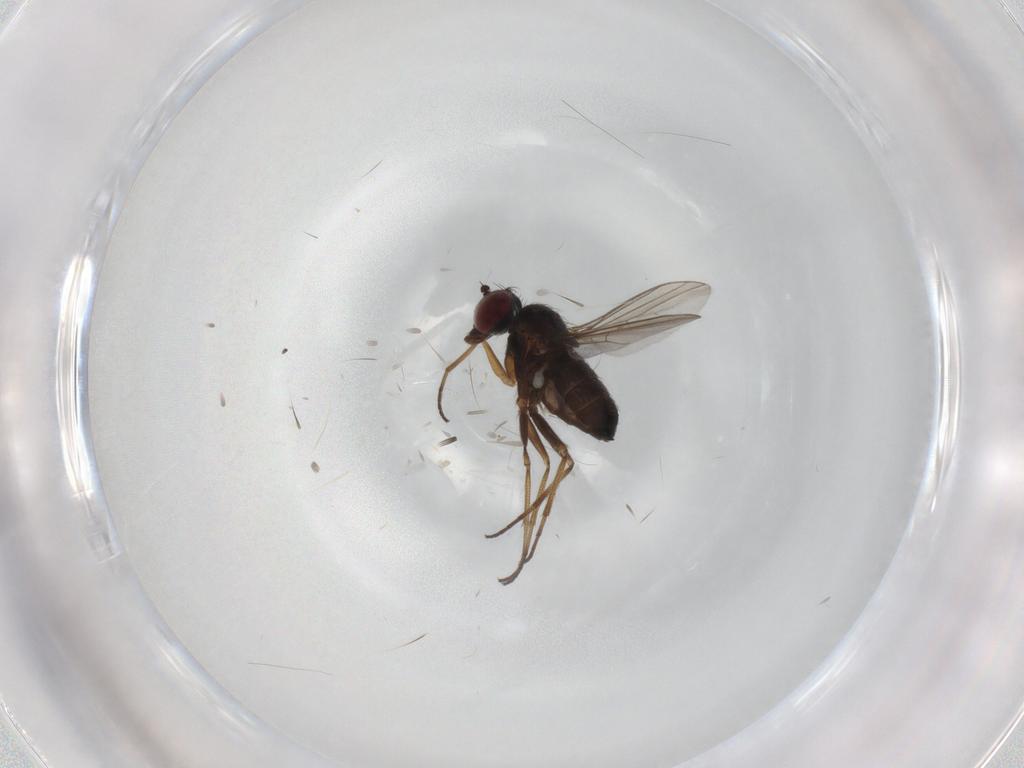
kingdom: Animalia
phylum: Arthropoda
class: Insecta
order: Diptera
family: Dolichopodidae
